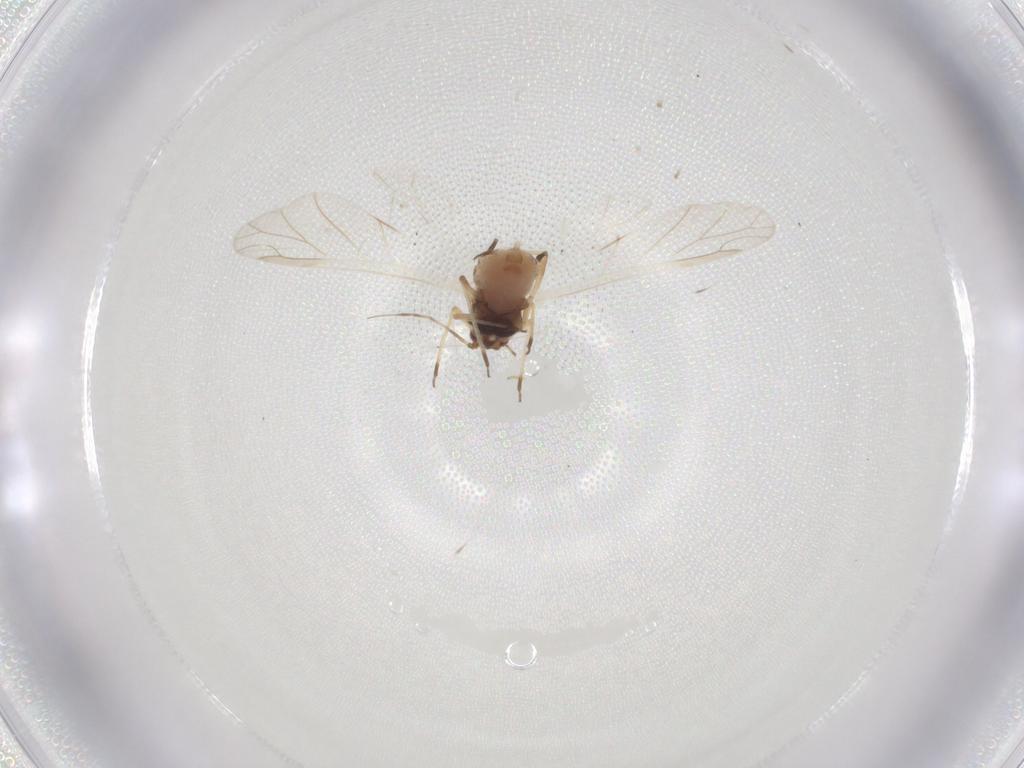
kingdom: Animalia
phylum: Arthropoda
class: Insecta
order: Hemiptera
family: Aphididae
